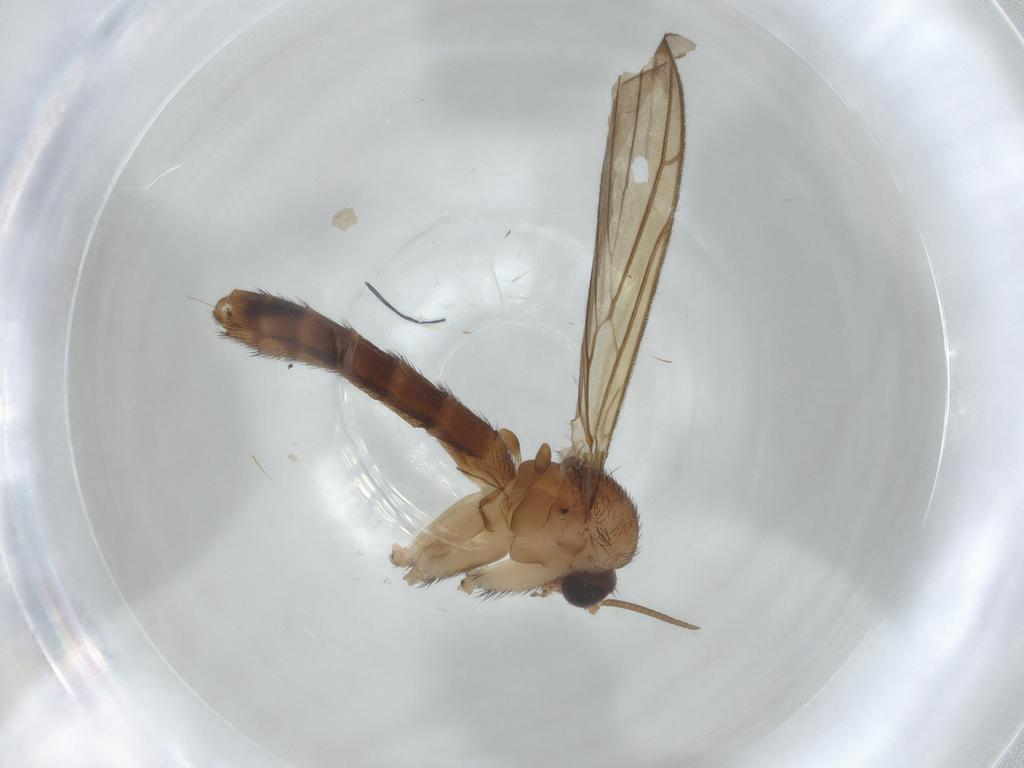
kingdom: Animalia
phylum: Arthropoda
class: Insecta
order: Diptera
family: Keroplatidae
